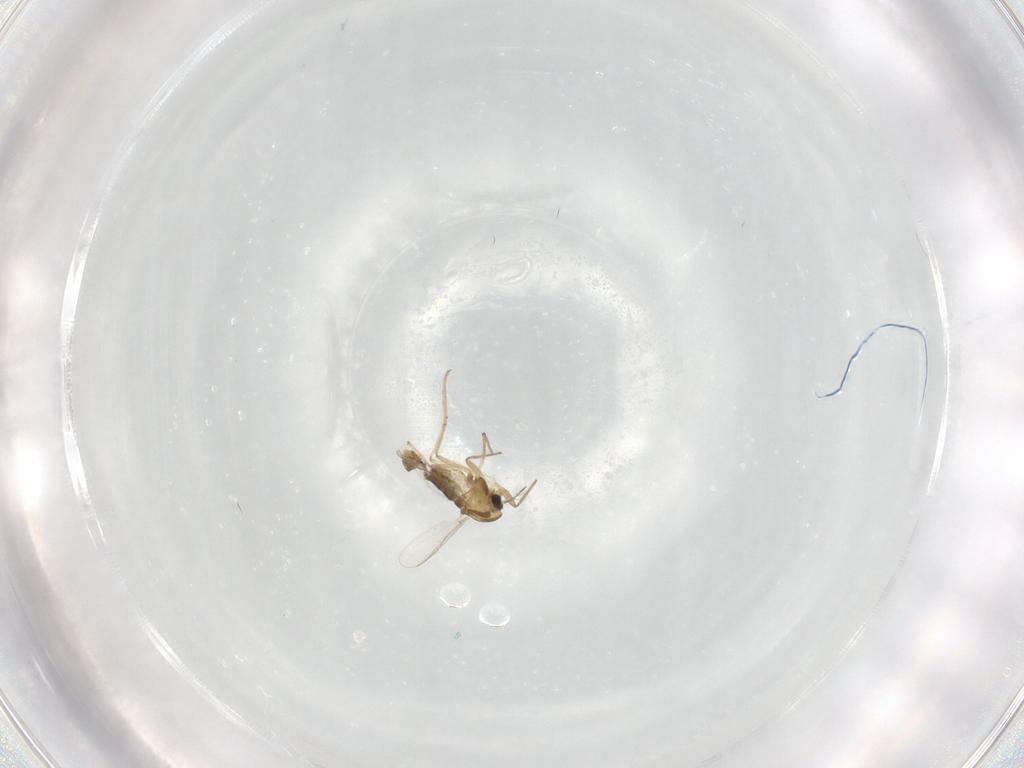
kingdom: Animalia
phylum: Arthropoda
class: Insecta
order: Diptera
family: Chironomidae
